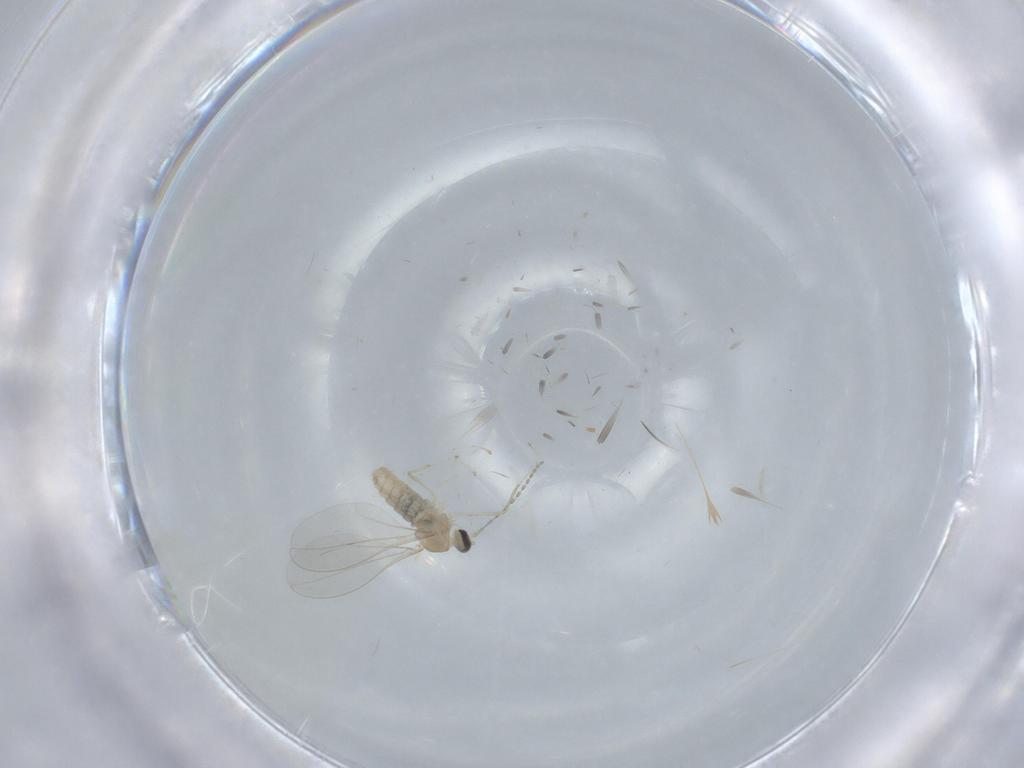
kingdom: Animalia
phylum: Arthropoda
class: Insecta
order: Diptera
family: Cecidomyiidae
